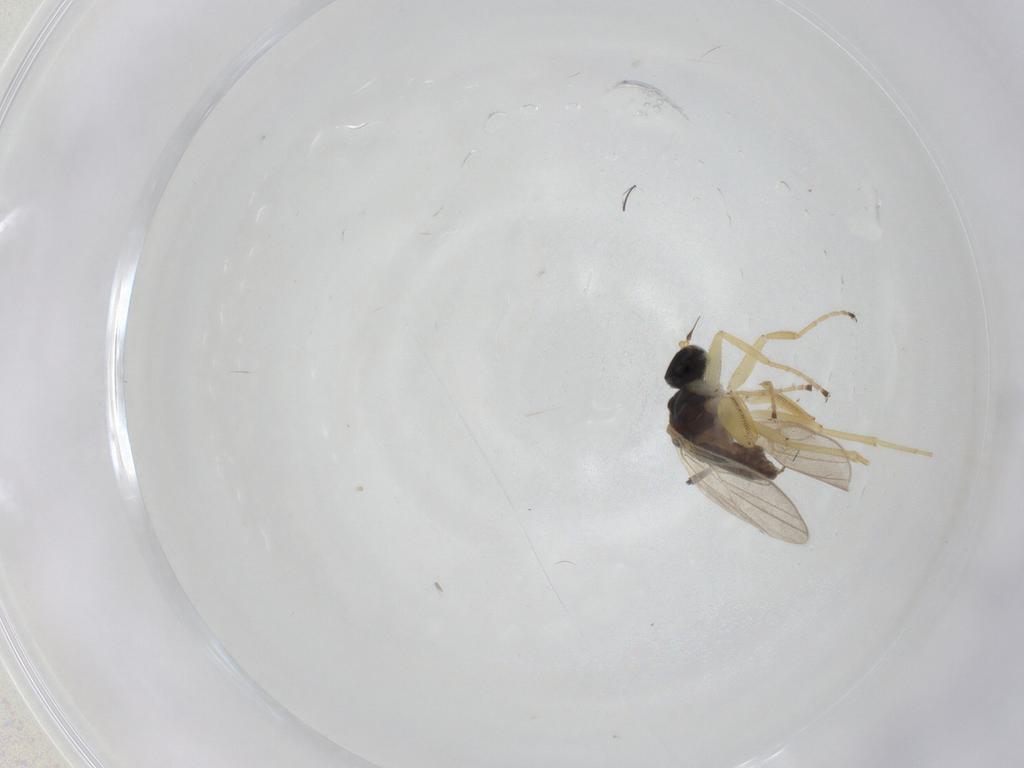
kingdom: Animalia
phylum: Arthropoda
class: Insecta
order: Diptera
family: Hybotidae
